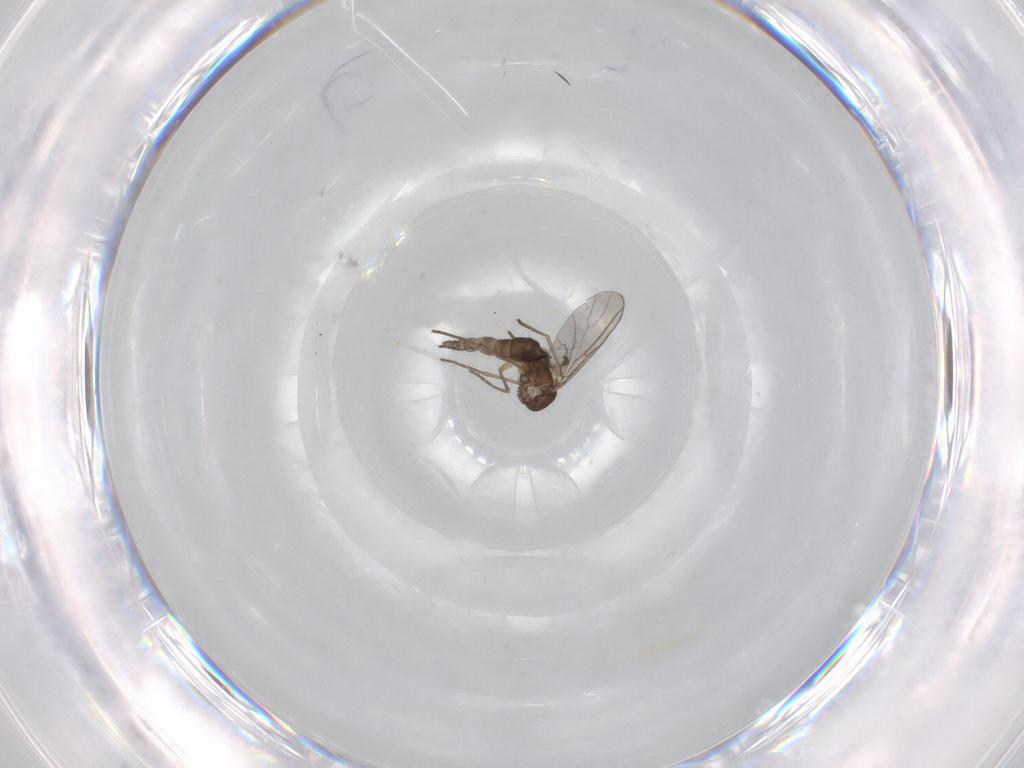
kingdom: Animalia
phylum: Arthropoda
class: Insecta
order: Diptera
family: Sciaridae
